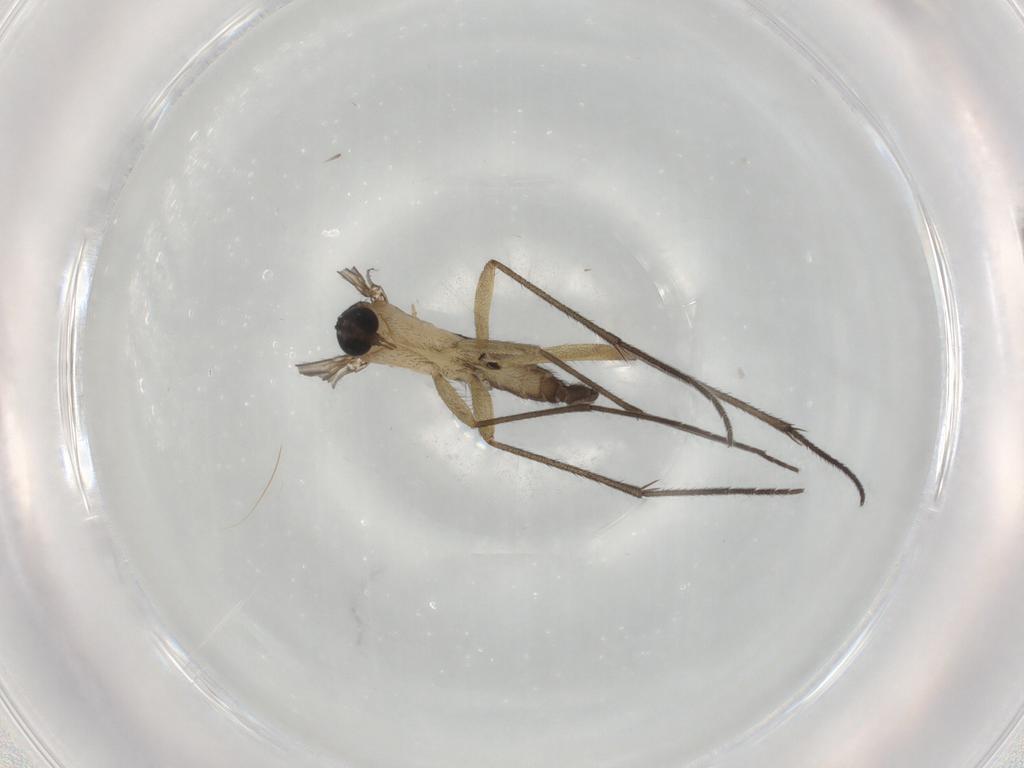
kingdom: Animalia
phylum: Arthropoda
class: Insecta
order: Diptera
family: Sciaridae
